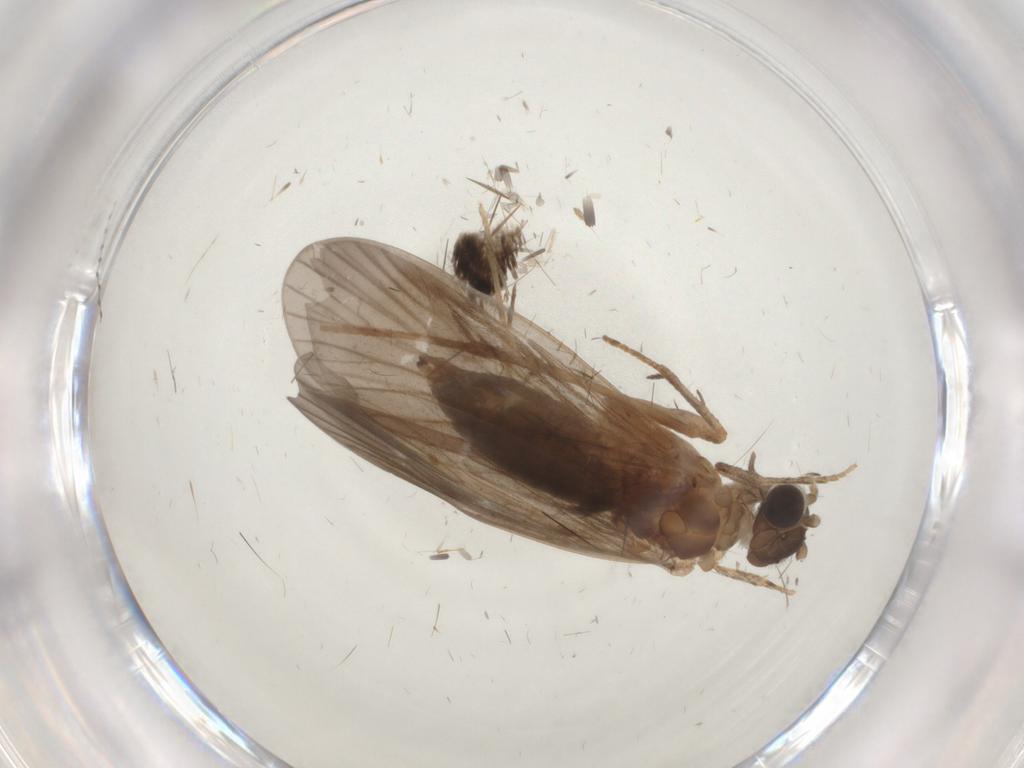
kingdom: Animalia
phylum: Arthropoda
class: Insecta
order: Trichoptera
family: Philopotamidae
